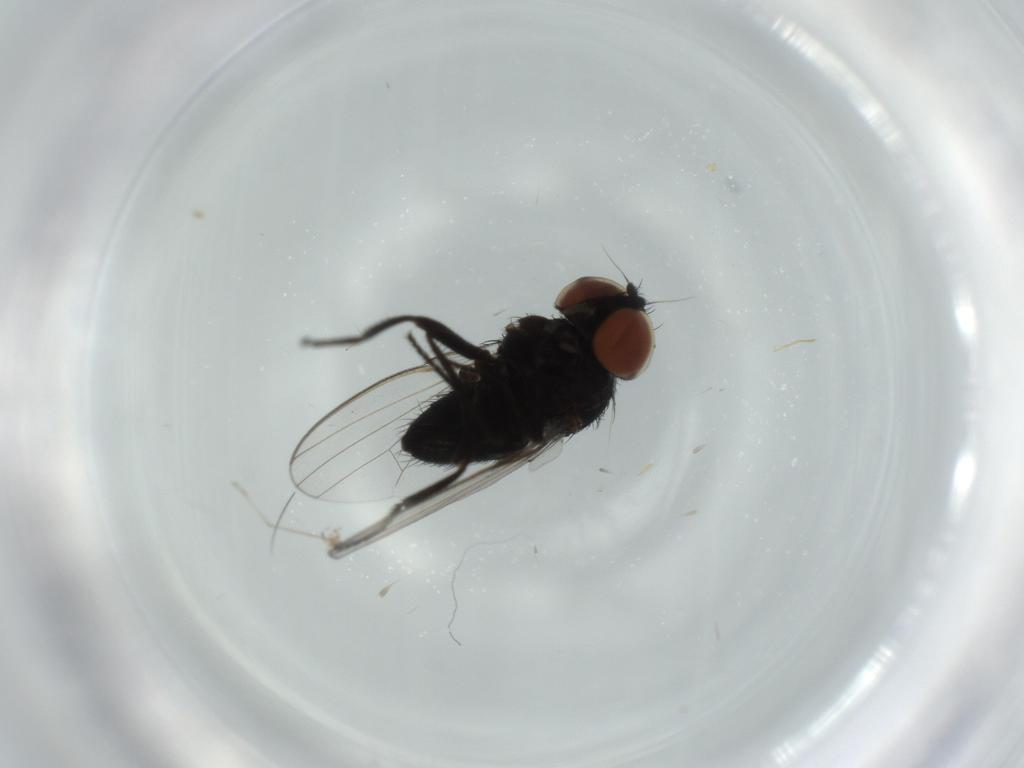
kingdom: Animalia
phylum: Arthropoda
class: Insecta
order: Diptera
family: Milichiidae
